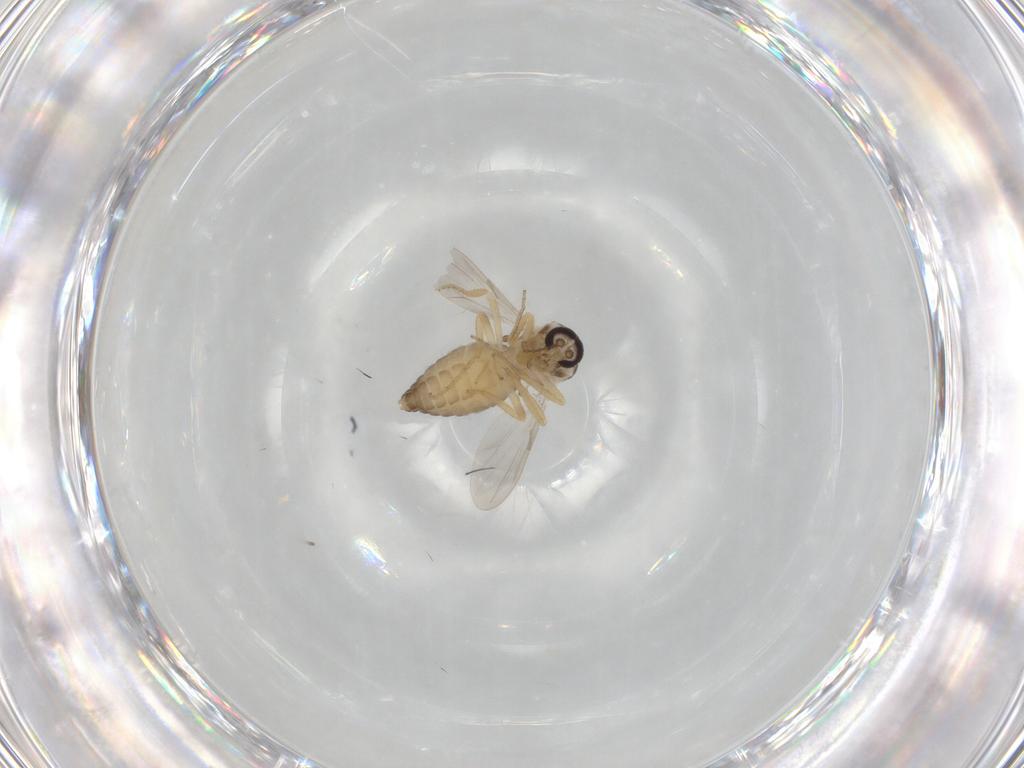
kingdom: Animalia
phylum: Arthropoda
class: Insecta
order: Diptera
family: Ceratopogonidae
